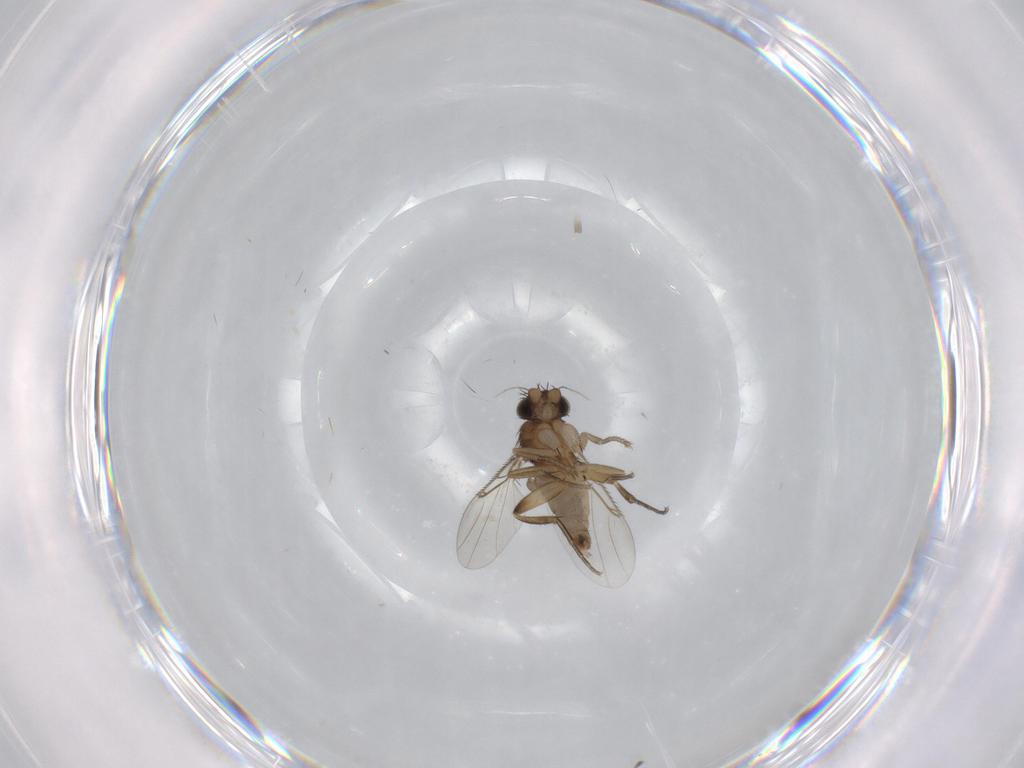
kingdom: Animalia
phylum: Arthropoda
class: Insecta
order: Diptera
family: Phoridae
